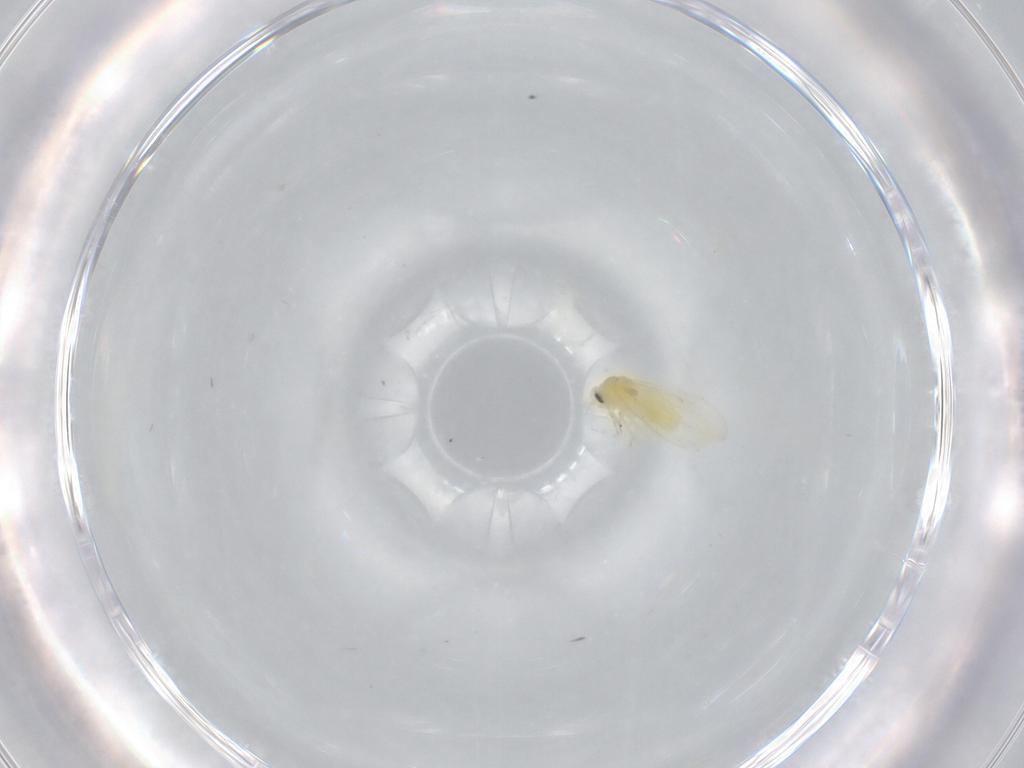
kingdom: Animalia
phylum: Arthropoda
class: Insecta
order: Hemiptera
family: Aleyrodidae
